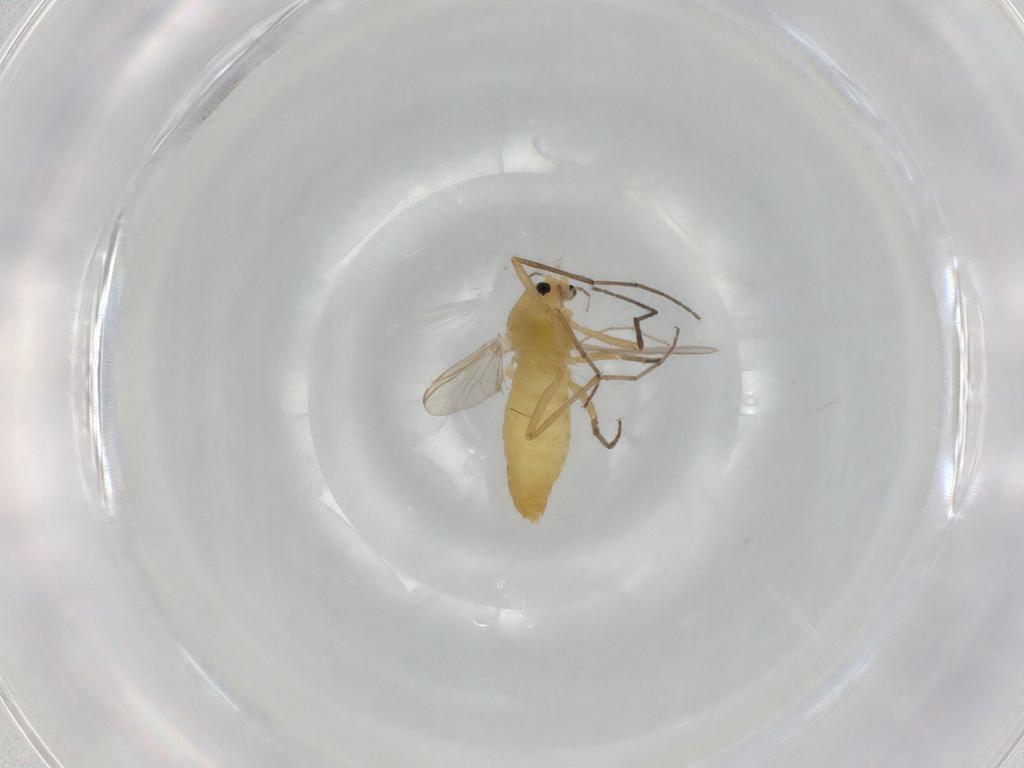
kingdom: Animalia
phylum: Arthropoda
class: Insecta
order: Diptera
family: Chironomidae
